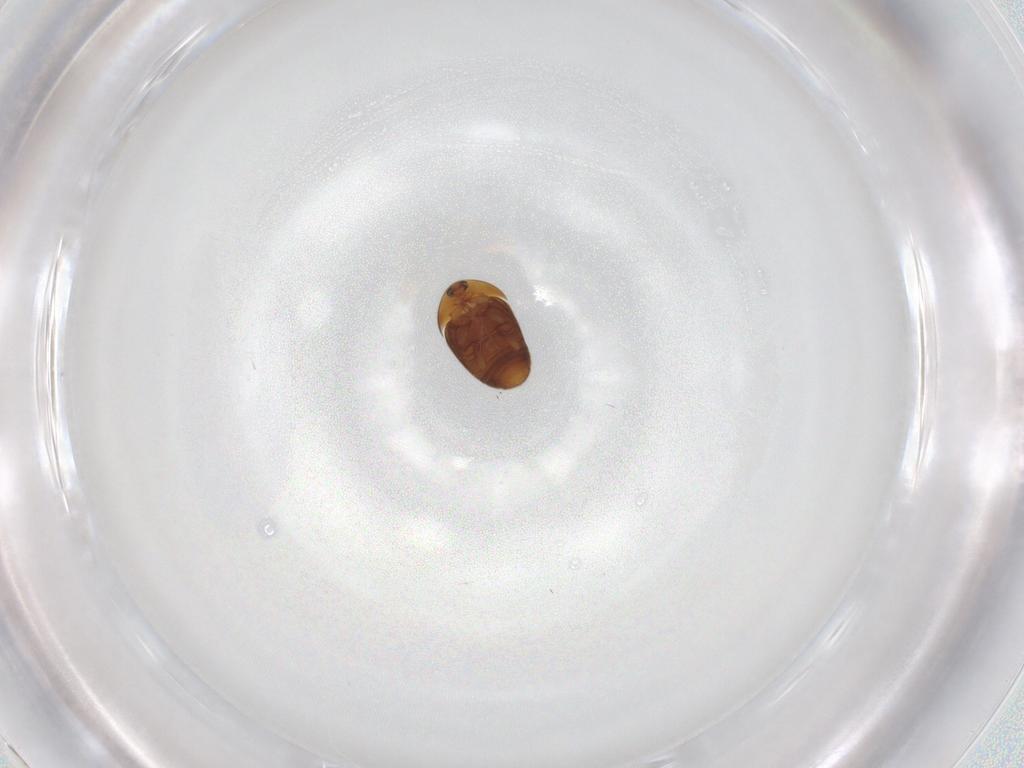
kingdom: Animalia
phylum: Arthropoda
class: Insecta
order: Coleoptera
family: Corylophidae
